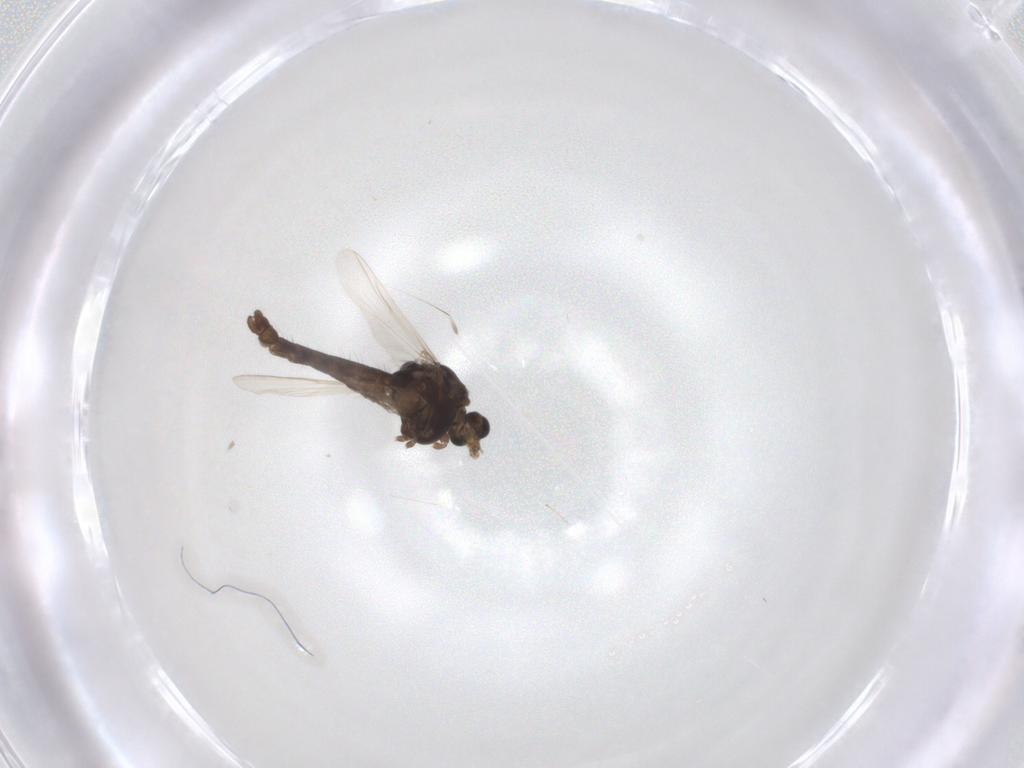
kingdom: Animalia
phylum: Arthropoda
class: Insecta
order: Diptera
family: Chironomidae
